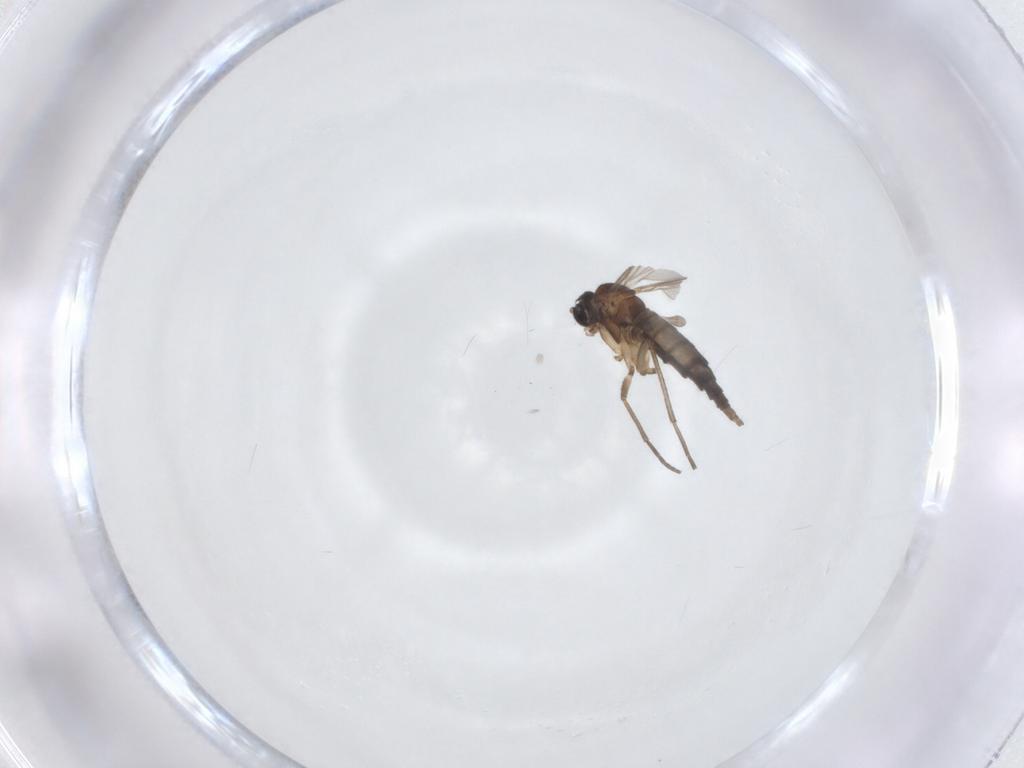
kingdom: Animalia
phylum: Arthropoda
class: Insecta
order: Diptera
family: Sciaridae
